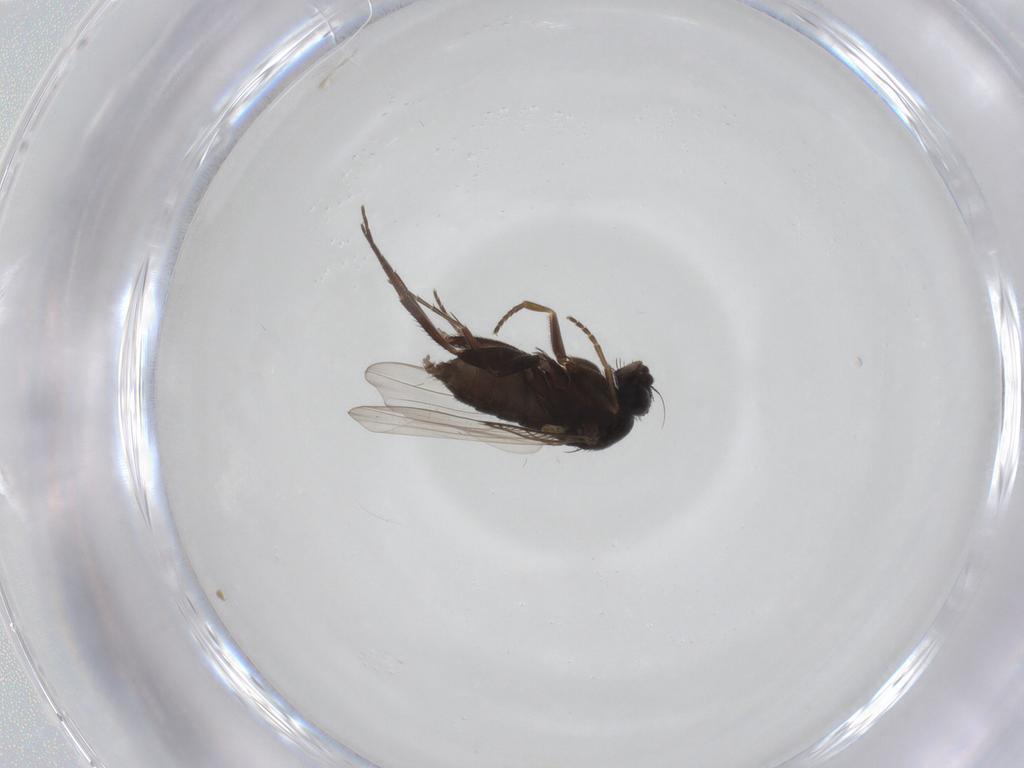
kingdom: Animalia
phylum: Arthropoda
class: Insecta
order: Diptera
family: Phoridae
